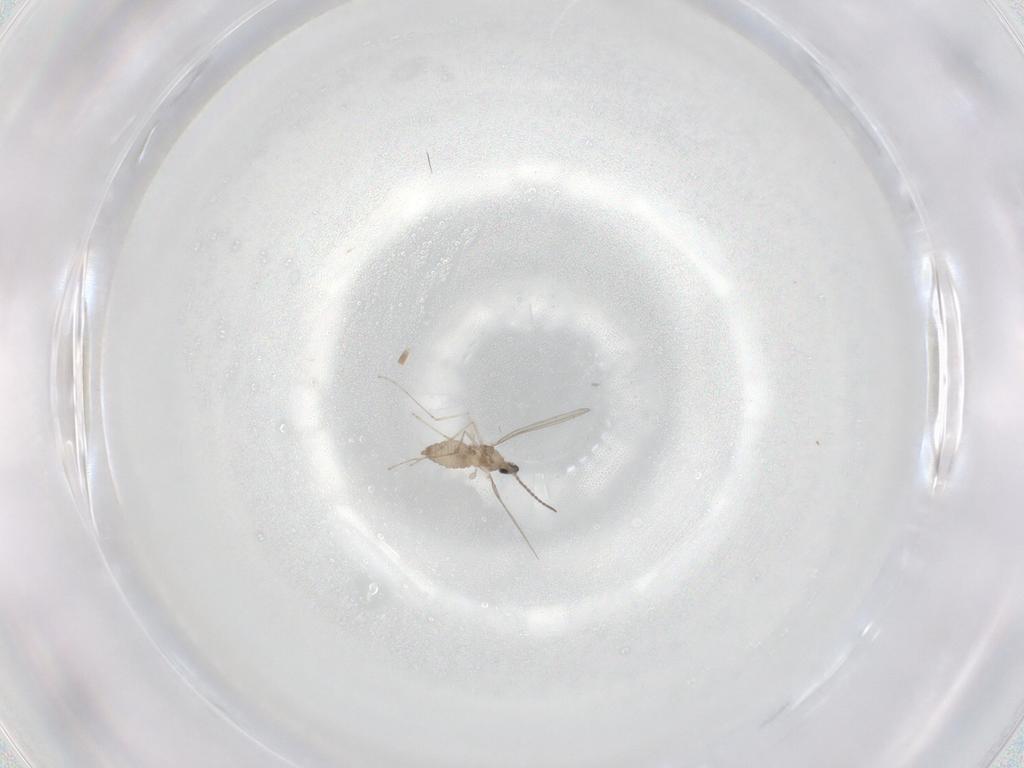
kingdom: Animalia
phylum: Arthropoda
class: Insecta
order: Diptera
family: Cecidomyiidae
